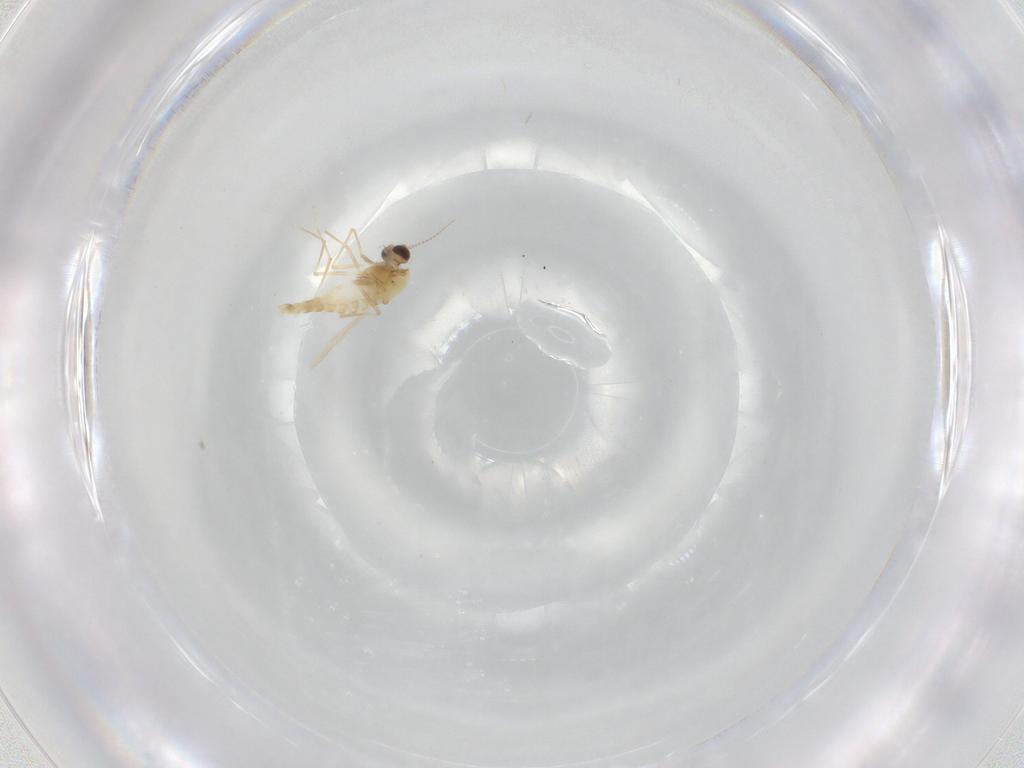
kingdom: Animalia
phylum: Arthropoda
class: Insecta
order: Diptera
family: Chironomidae
